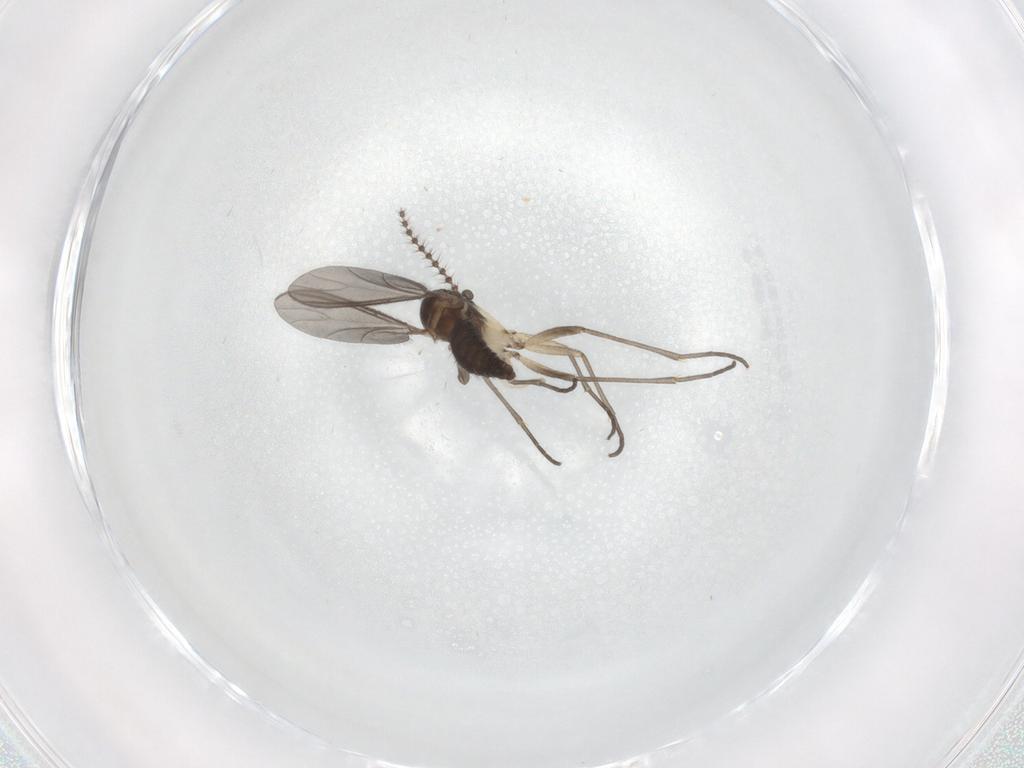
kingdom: Animalia
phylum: Arthropoda
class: Insecta
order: Diptera
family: Sciaridae
